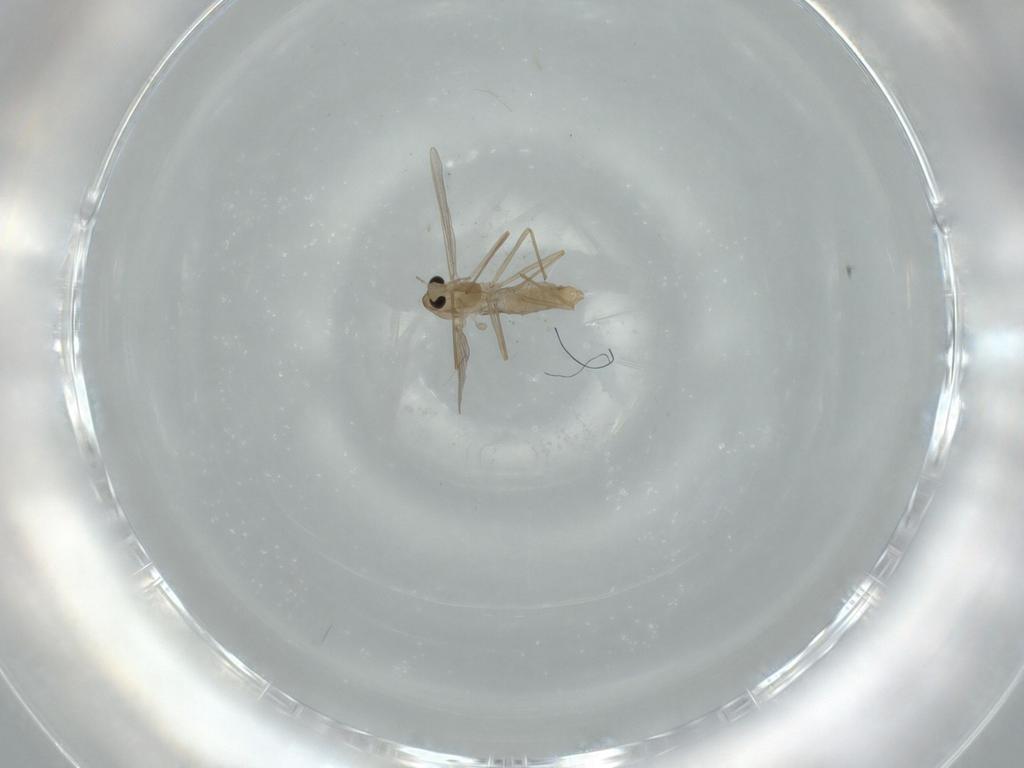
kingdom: Animalia
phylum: Arthropoda
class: Insecta
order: Diptera
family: Chironomidae
